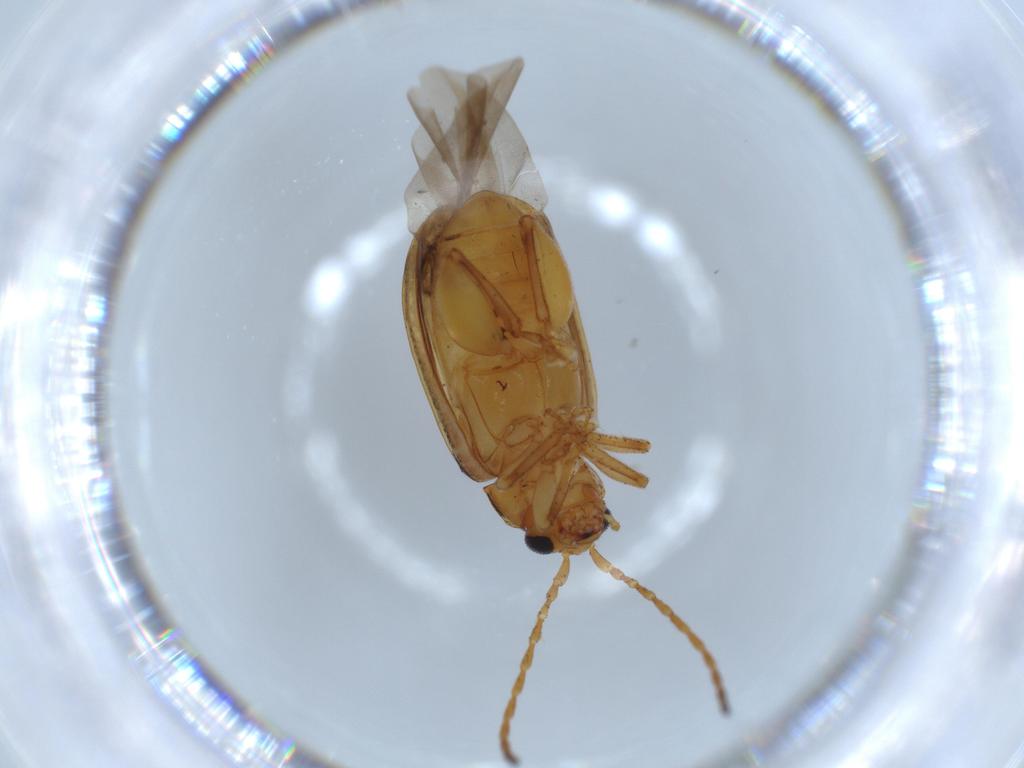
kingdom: Animalia
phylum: Arthropoda
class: Insecta
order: Coleoptera
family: Chrysomelidae
